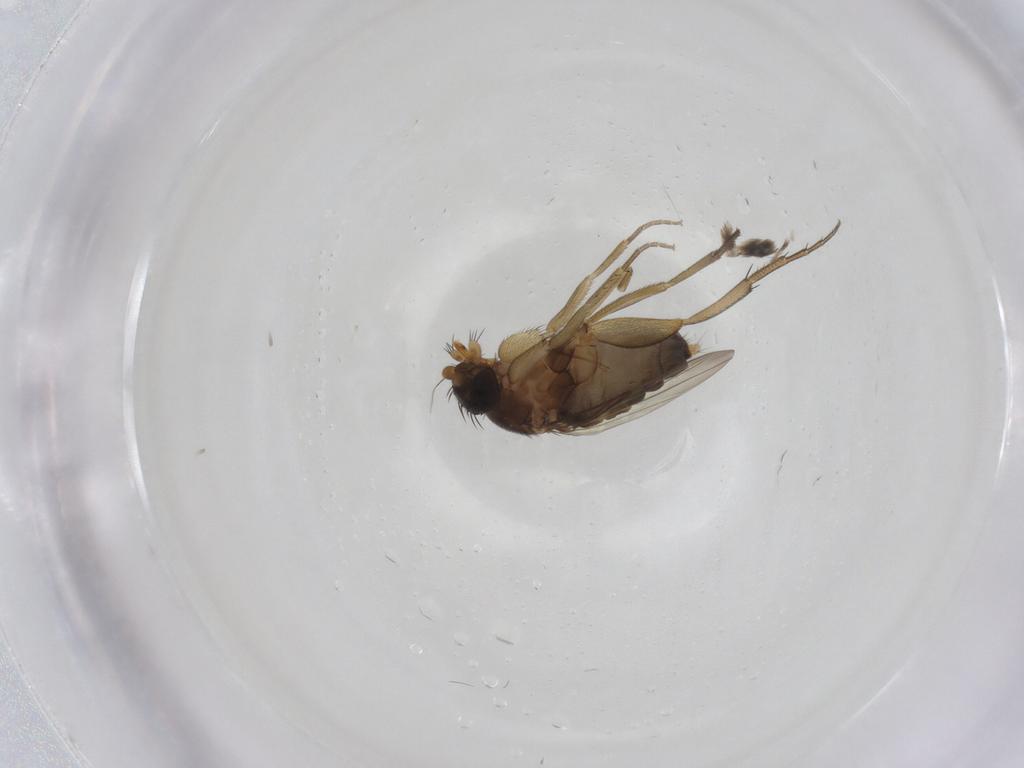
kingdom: Animalia
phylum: Arthropoda
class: Insecta
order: Diptera
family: Phoridae
